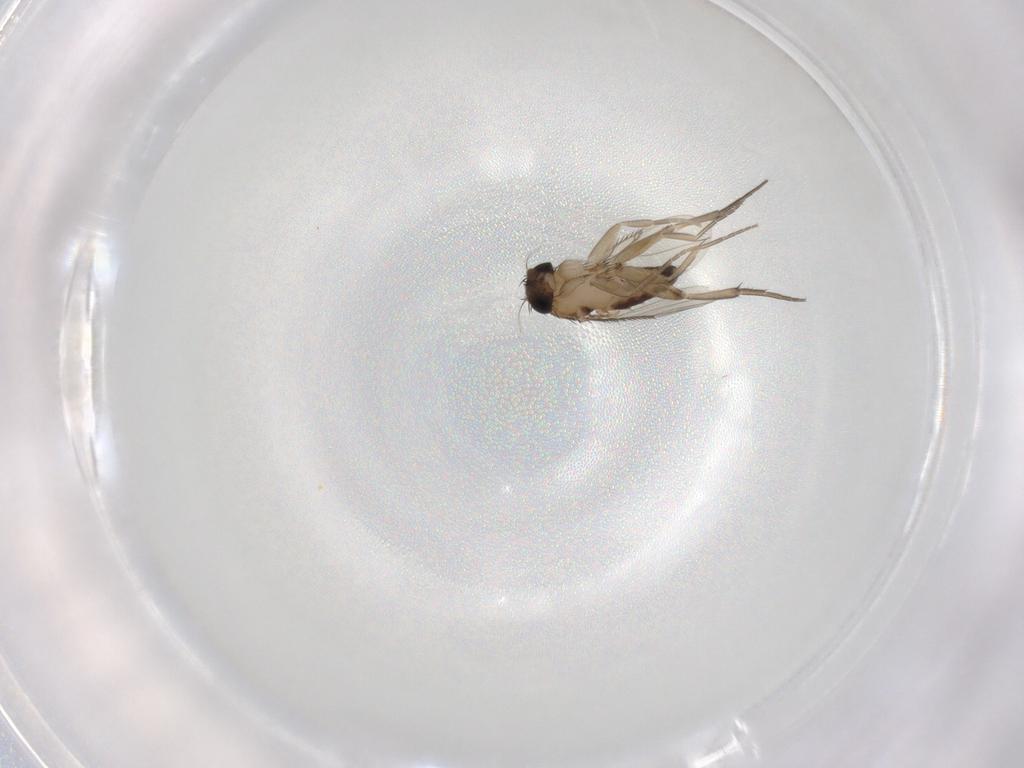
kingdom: Animalia
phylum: Arthropoda
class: Insecta
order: Diptera
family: Phoridae
